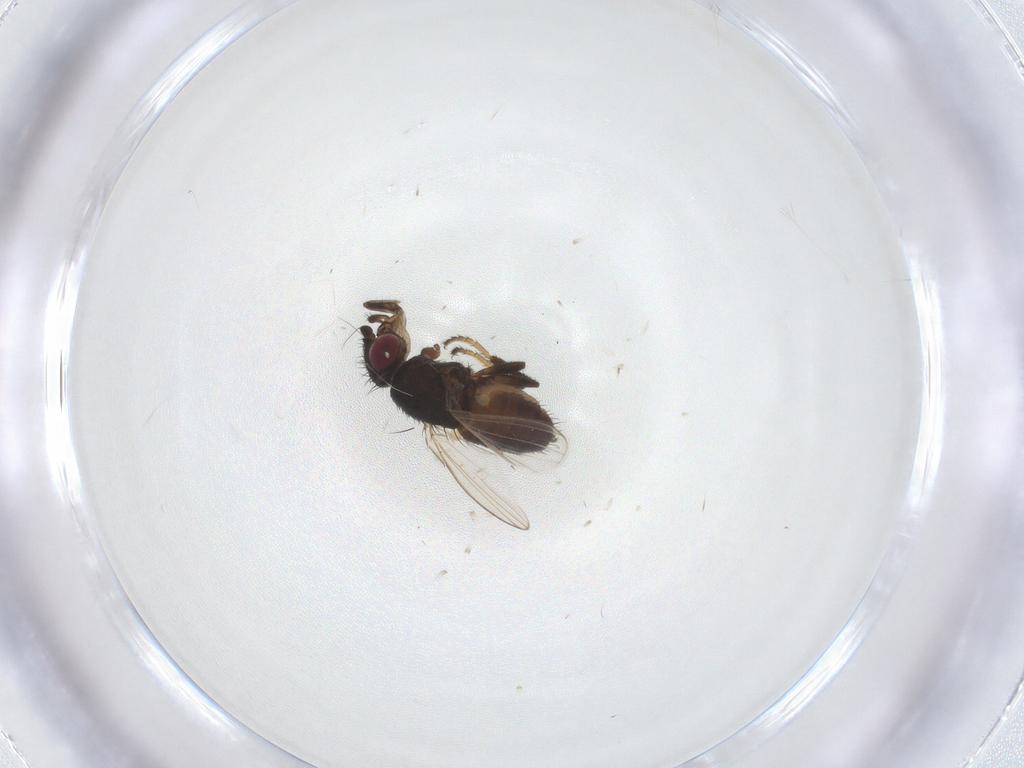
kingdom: Animalia
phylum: Arthropoda
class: Insecta
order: Diptera
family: Milichiidae
